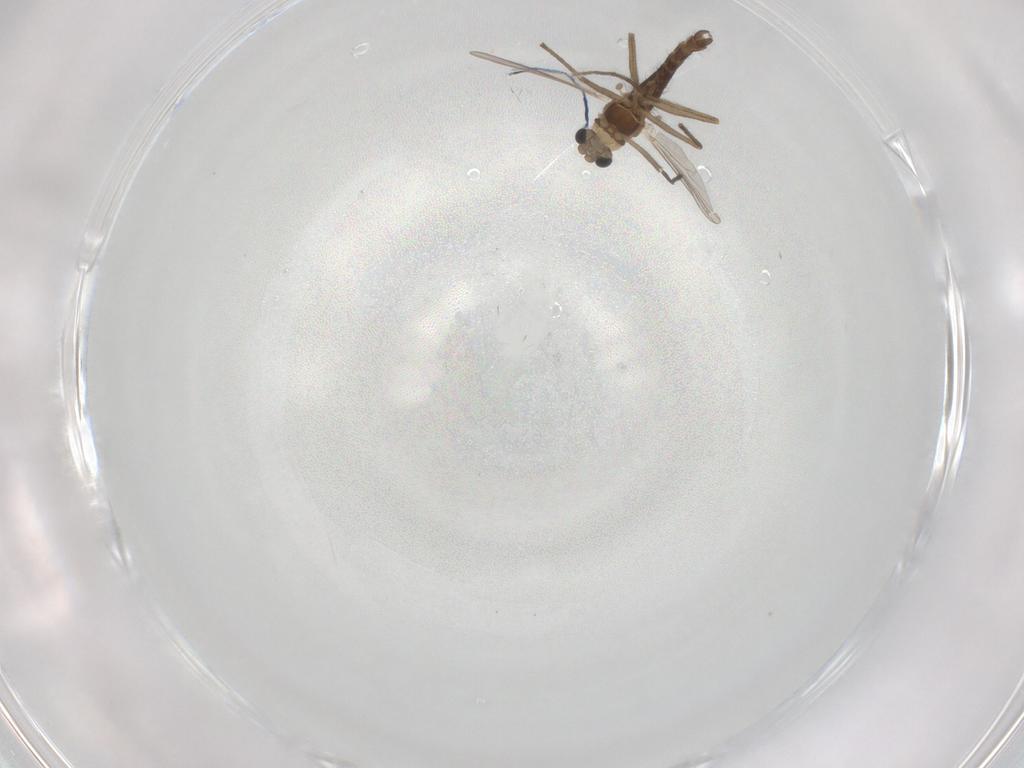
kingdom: Animalia
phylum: Arthropoda
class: Insecta
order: Diptera
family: Chironomidae
